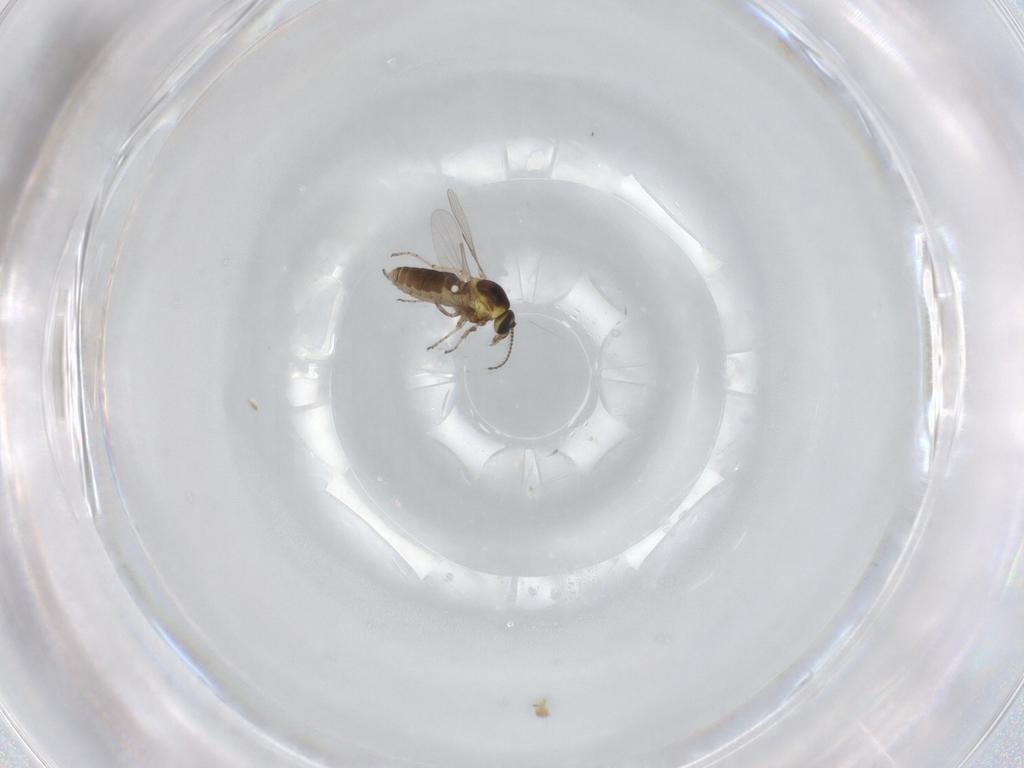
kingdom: Animalia
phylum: Arthropoda
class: Insecta
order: Diptera
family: Ceratopogonidae
